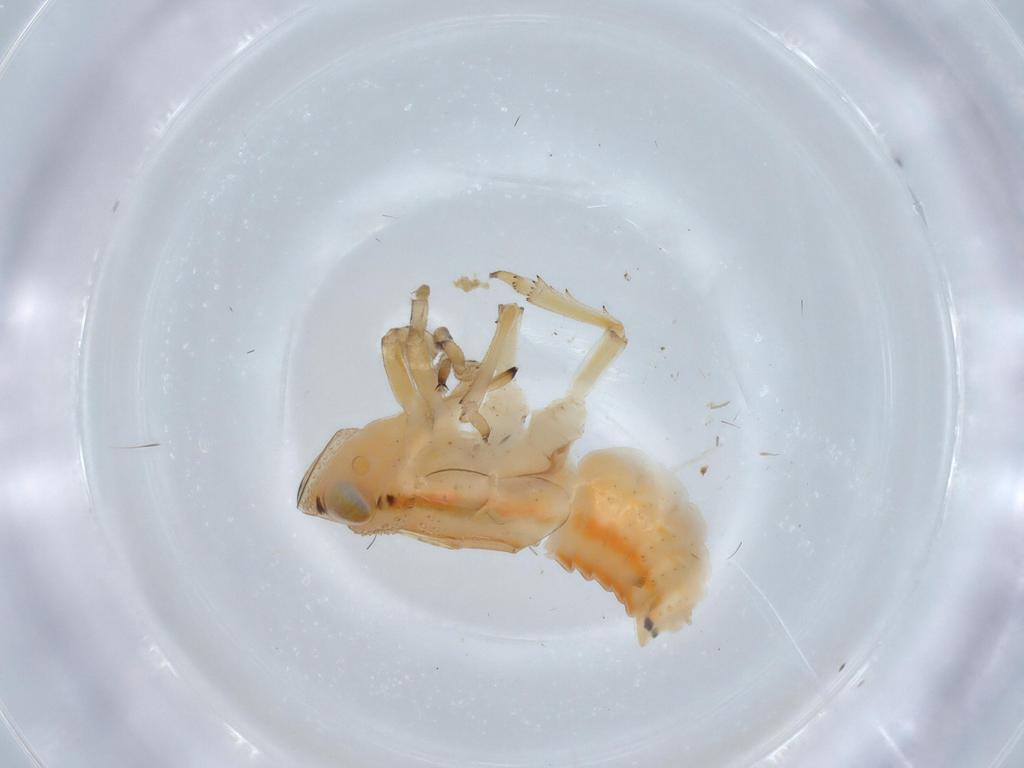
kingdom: Animalia
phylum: Arthropoda
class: Insecta
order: Hemiptera
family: Issidae
